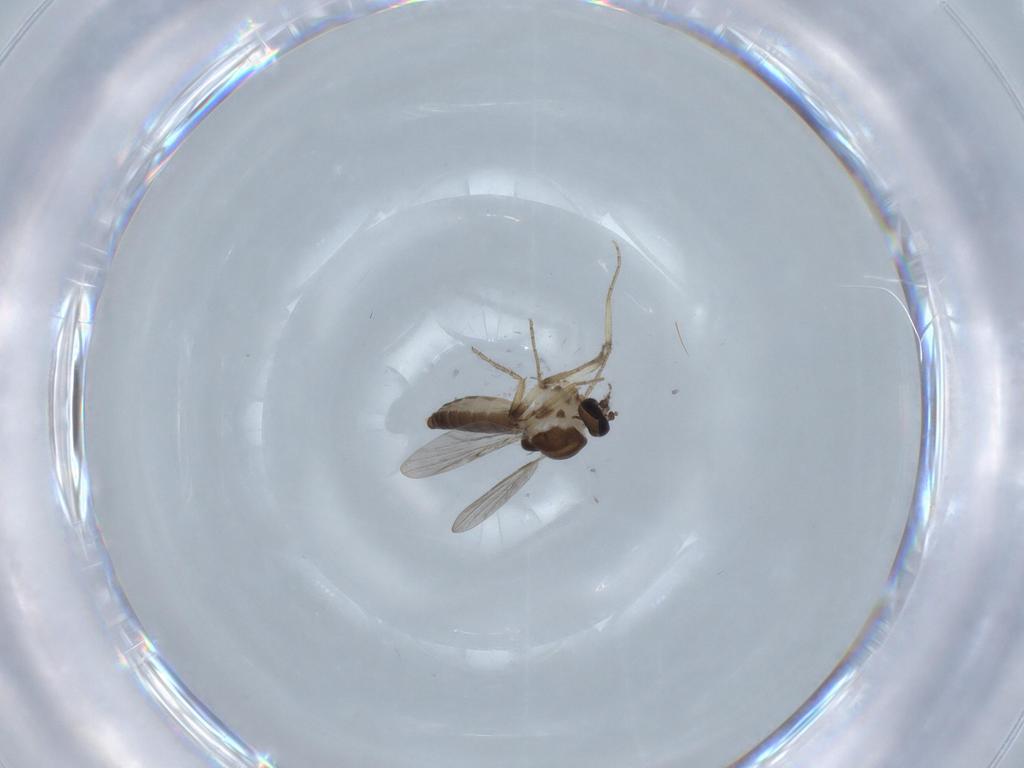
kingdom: Animalia
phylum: Arthropoda
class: Insecta
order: Diptera
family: Ceratopogonidae
